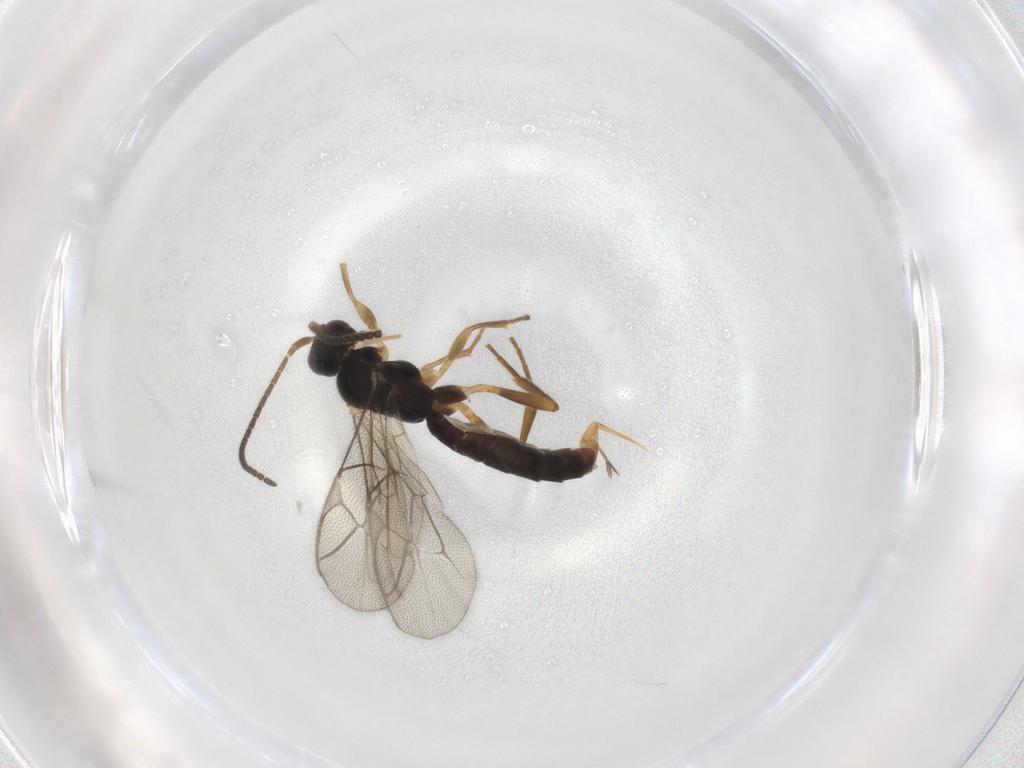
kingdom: Animalia
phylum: Arthropoda
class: Insecta
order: Hymenoptera
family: Ichneumonidae
